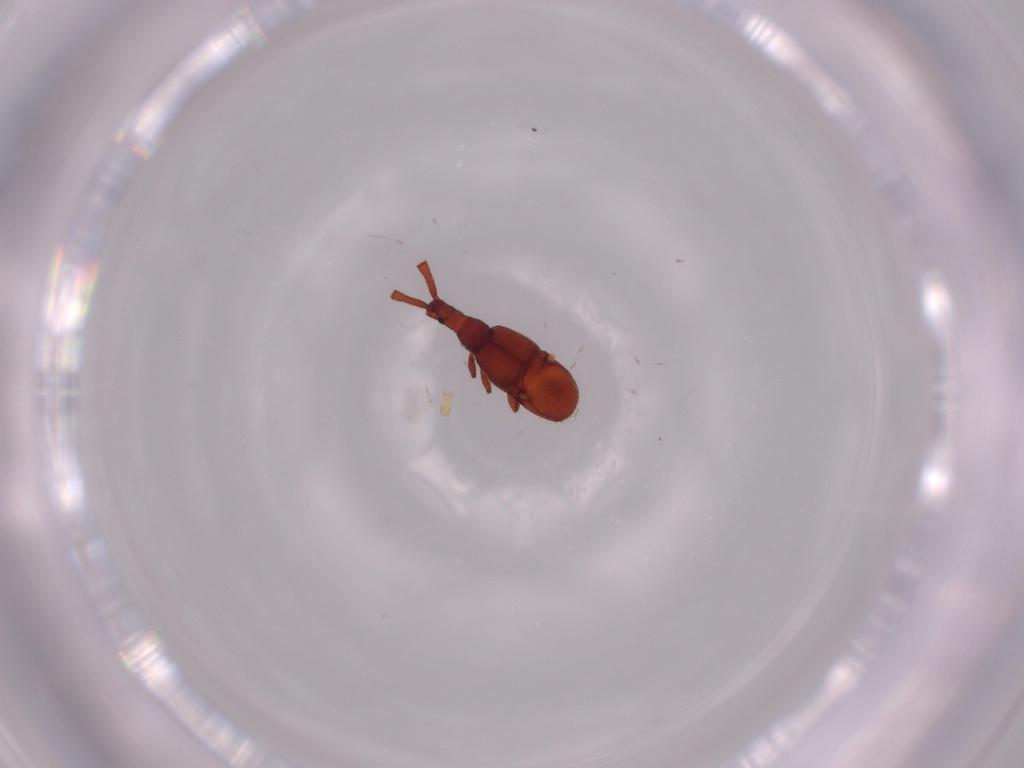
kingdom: Animalia
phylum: Arthropoda
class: Insecta
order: Coleoptera
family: Staphylinidae
